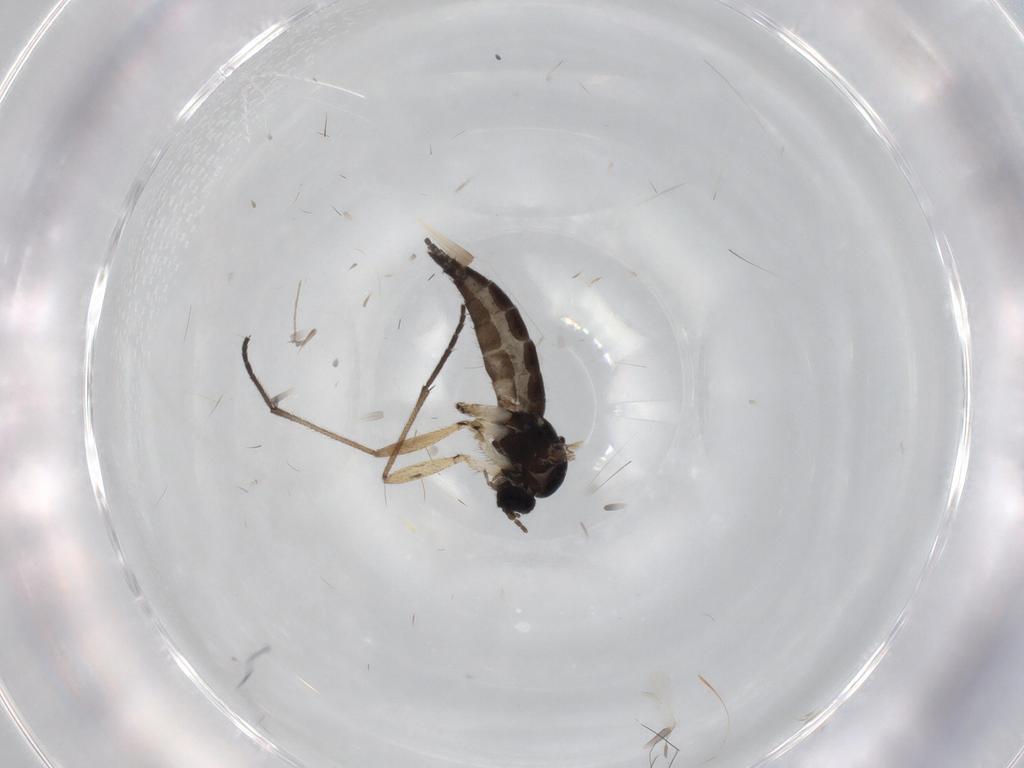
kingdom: Animalia
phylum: Arthropoda
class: Insecta
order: Diptera
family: Sciaridae
